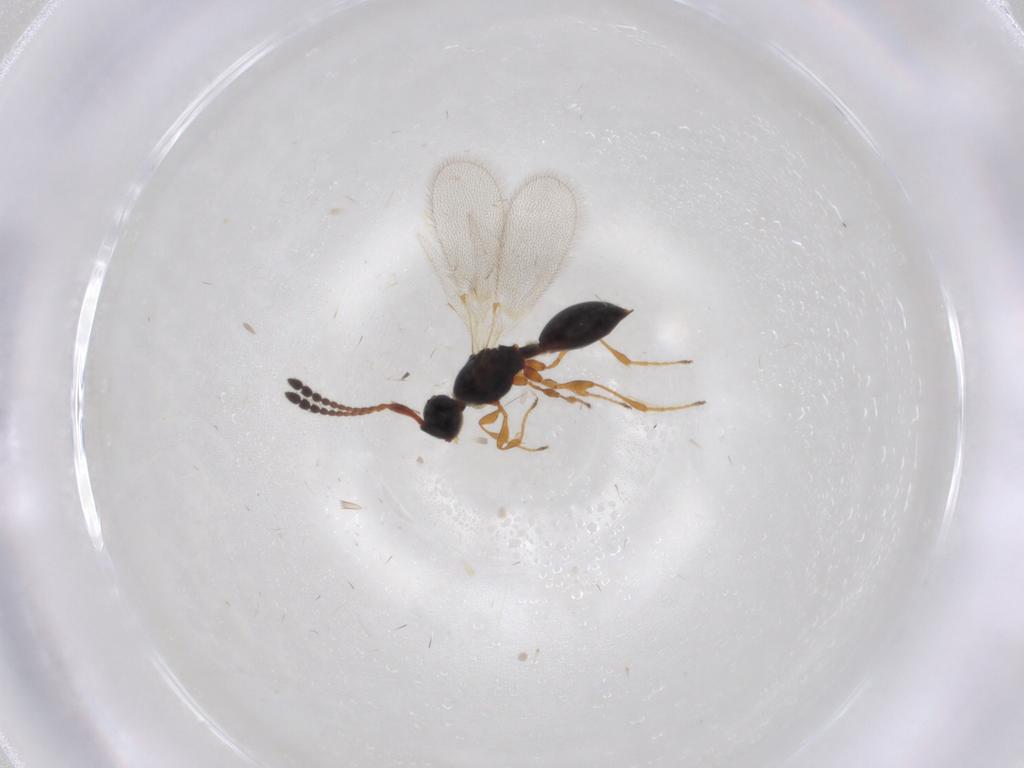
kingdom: Animalia
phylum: Arthropoda
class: Insecta
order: Hymenoptera
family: Diapriidae
